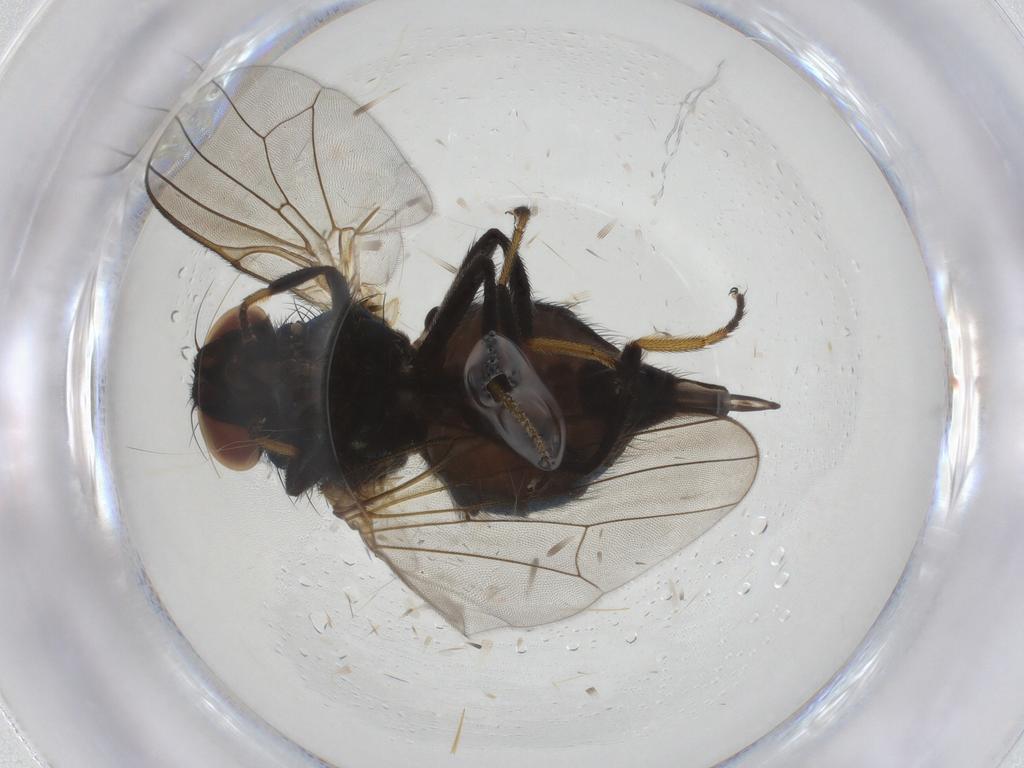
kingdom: Animalia
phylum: Arthropoda
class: Insecta
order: Diptera
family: Chironomidae
